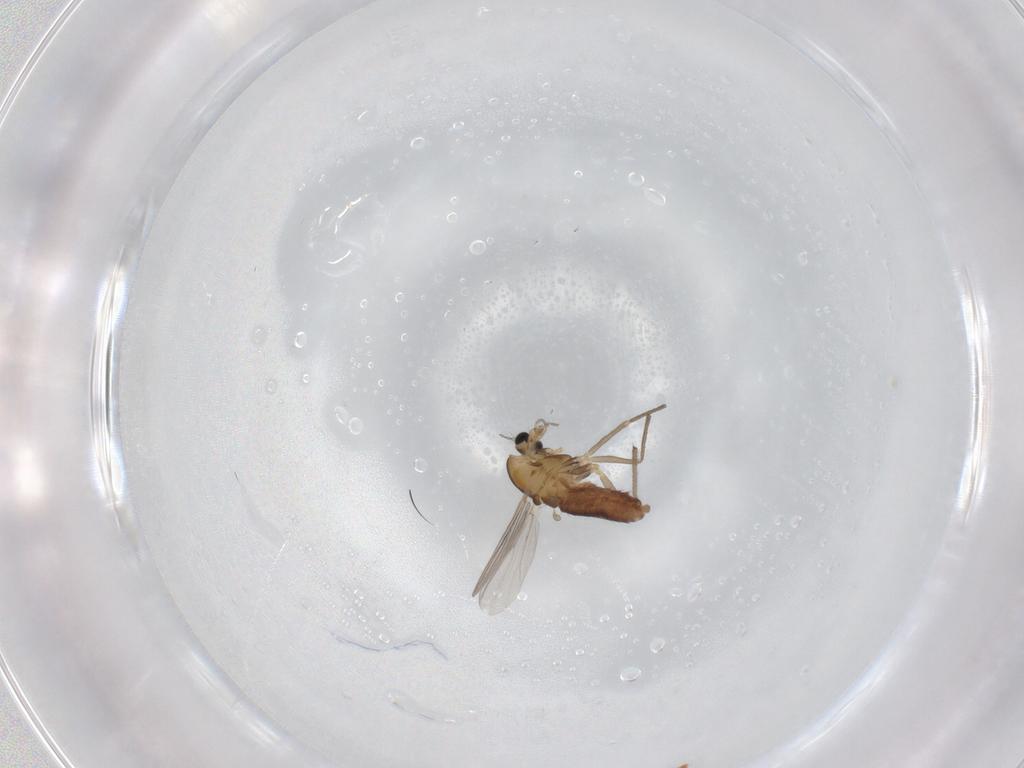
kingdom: Animalia
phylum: Arthropoda
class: Insecta
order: Diptera
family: Chironomidae
